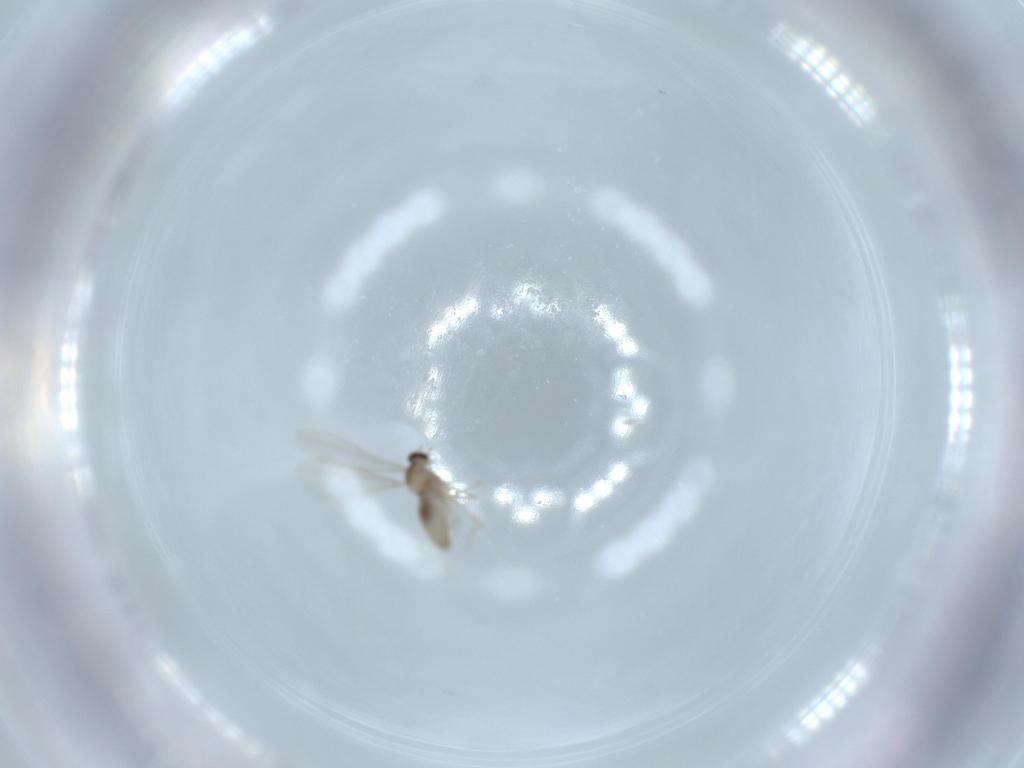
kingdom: Animalia
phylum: Arthropoda
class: Insecta
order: Diptera
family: Cecidomyiidae
